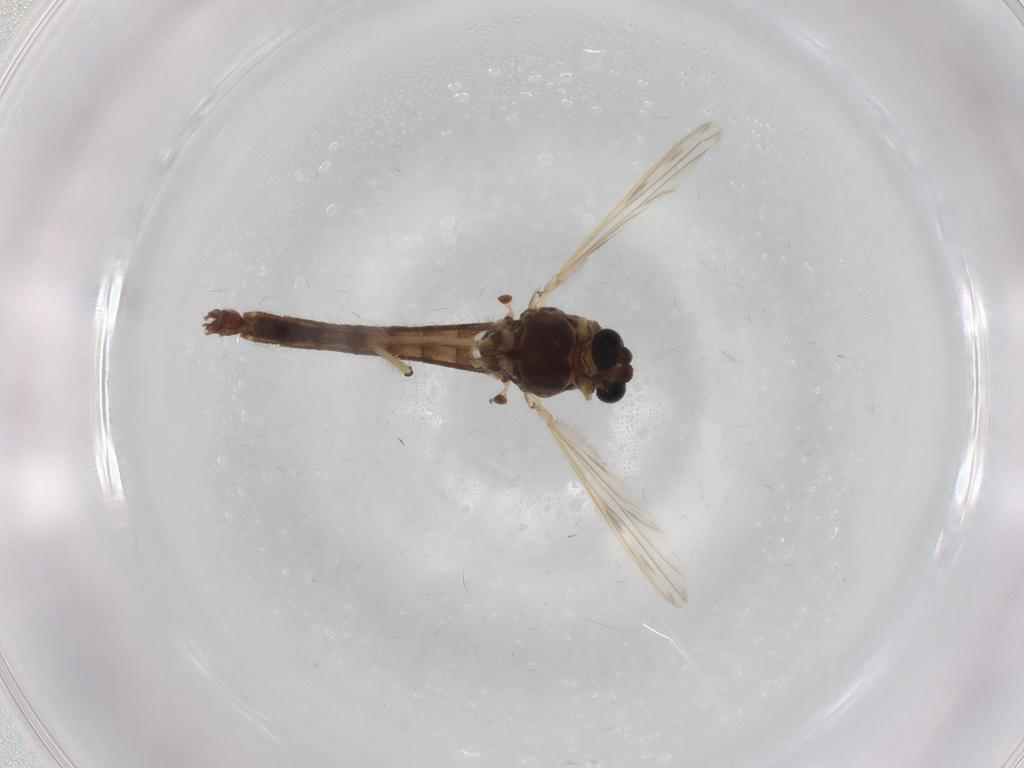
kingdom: Animalia
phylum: Arthropoda
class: Insecta
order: Diptera
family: Chironomidae
